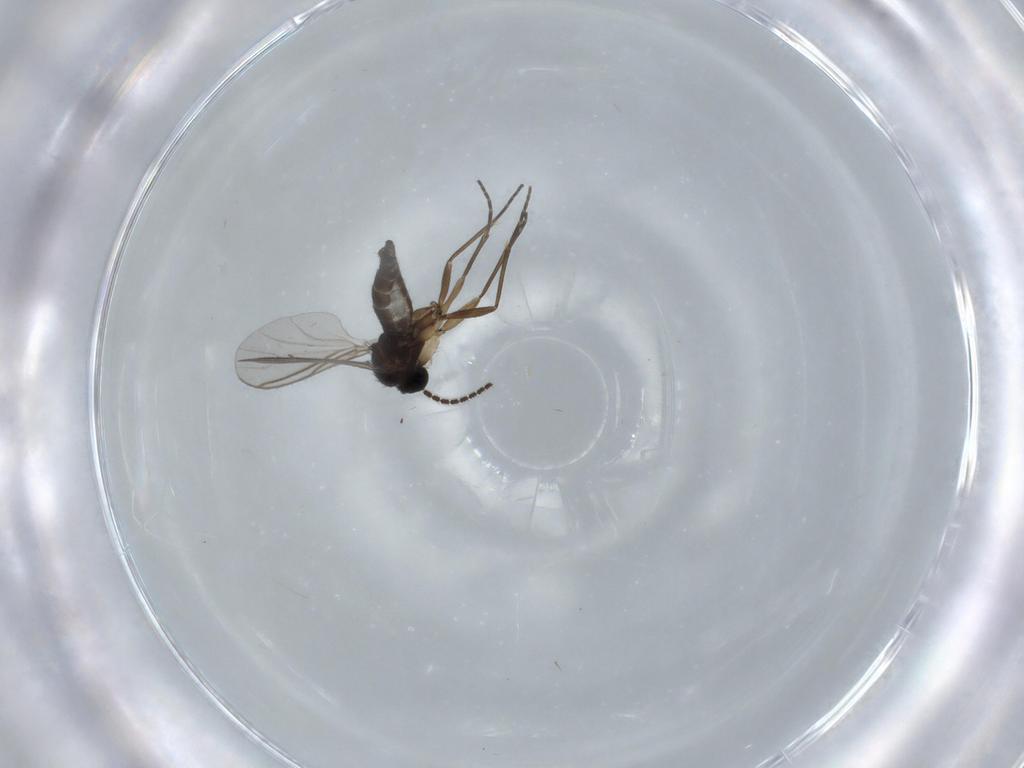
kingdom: Animalia
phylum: Arthropoda
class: Insecta
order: Diptera
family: Sciaridae
